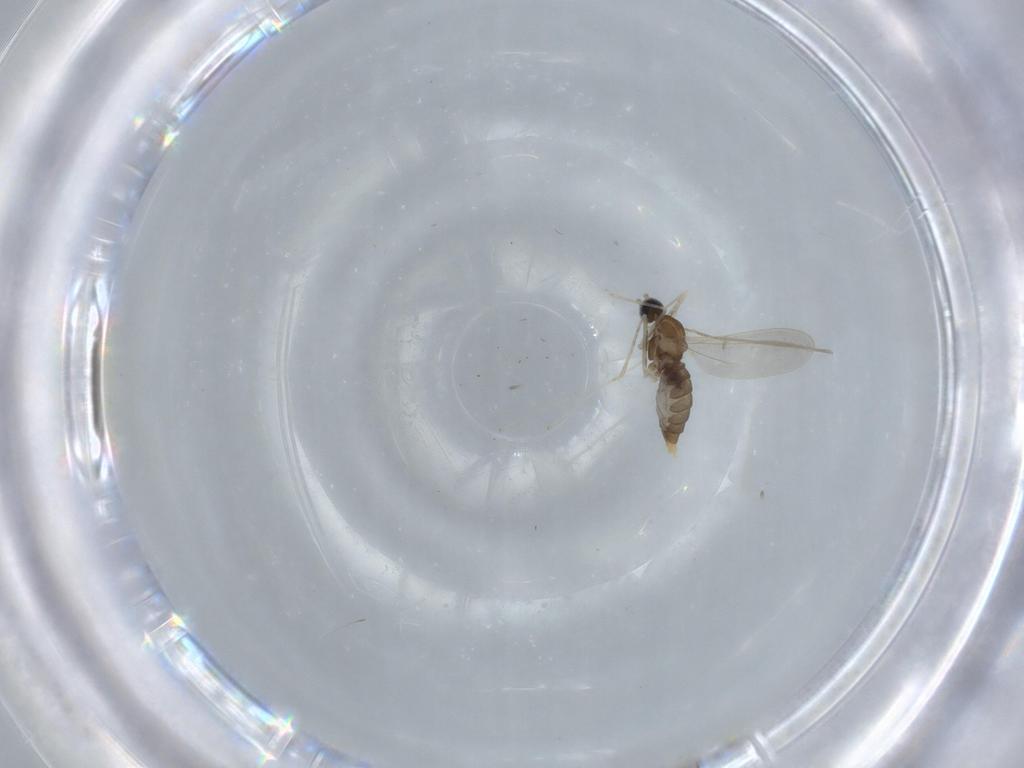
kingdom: Animalia
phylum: Arthropoda
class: Insecta
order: Diptera
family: Cecidomyiidae
